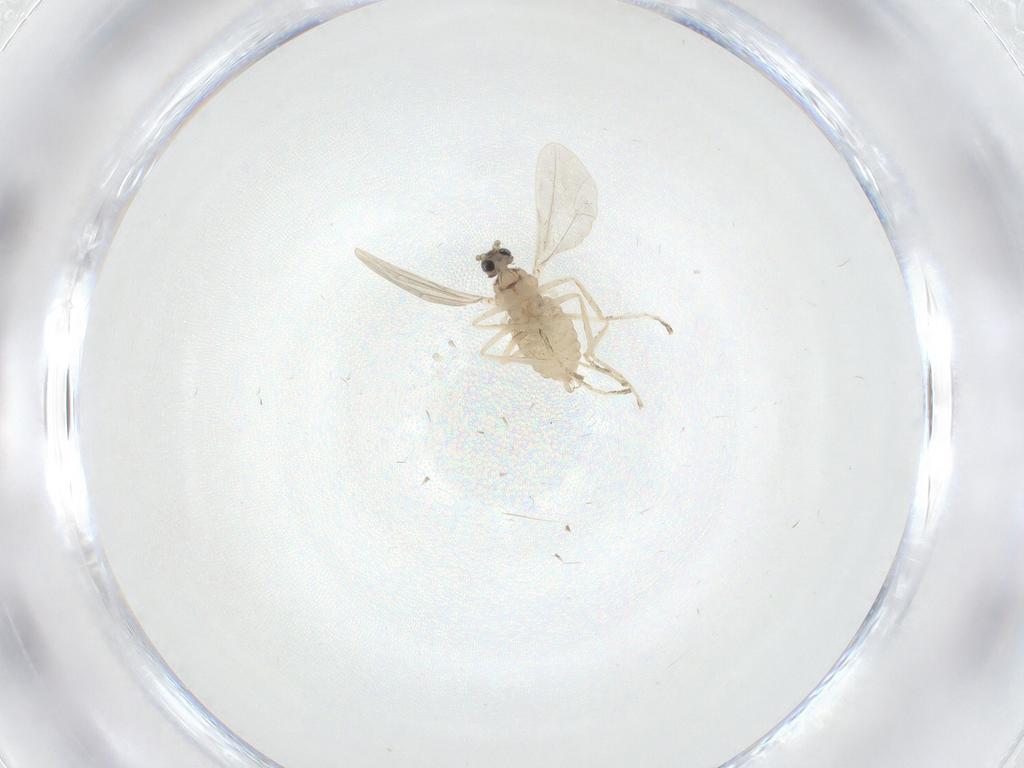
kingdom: Animalia
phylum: Arthropoda
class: Insecta
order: Diptera
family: Cecidomyiidae
